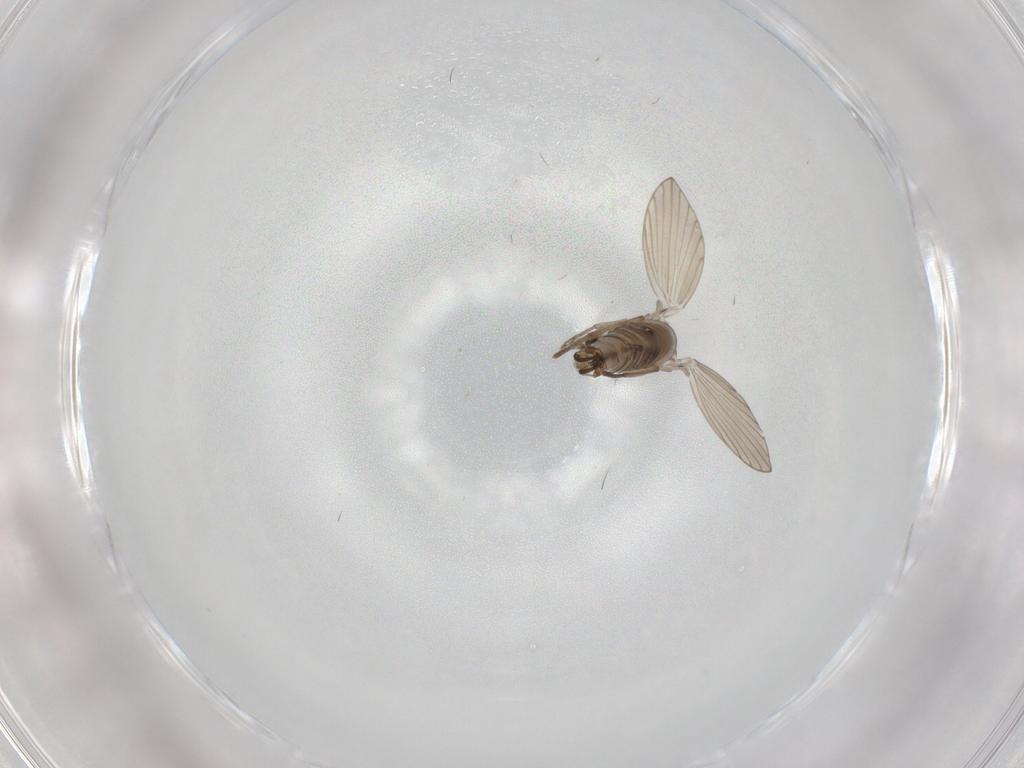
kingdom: Animalia
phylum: Arthropoda
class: Insecta
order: Diptera
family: Psychodidae
